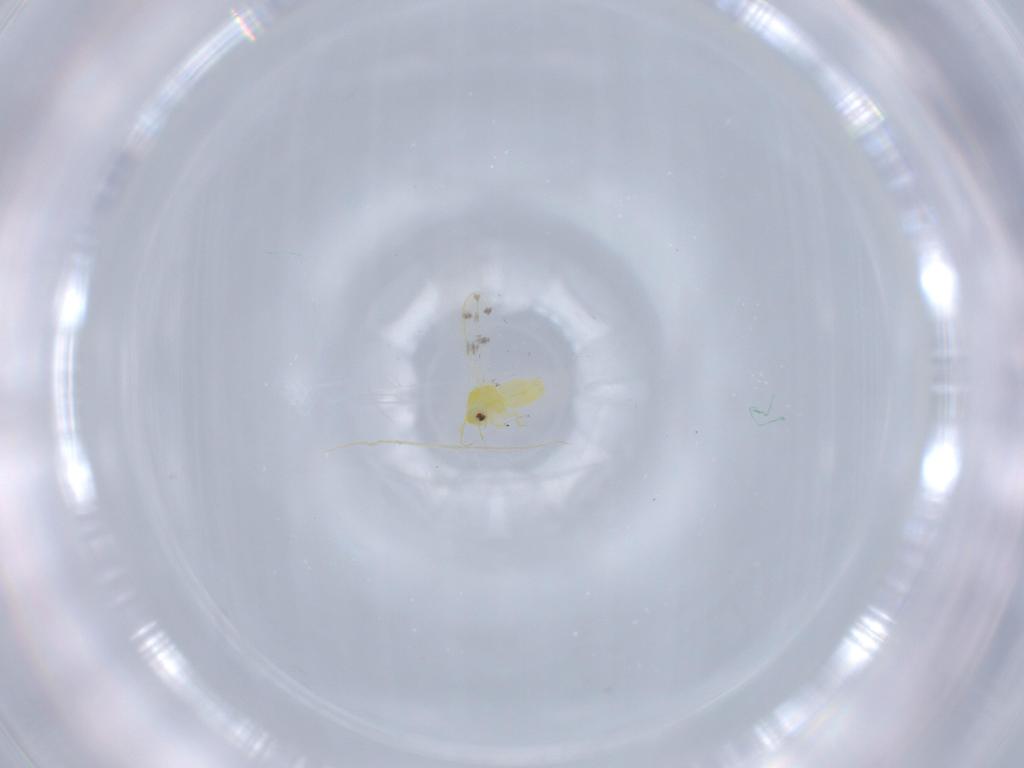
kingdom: Animalia
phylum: Arthropoda
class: Insecta
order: Hemiptera
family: Aleyrodidae
